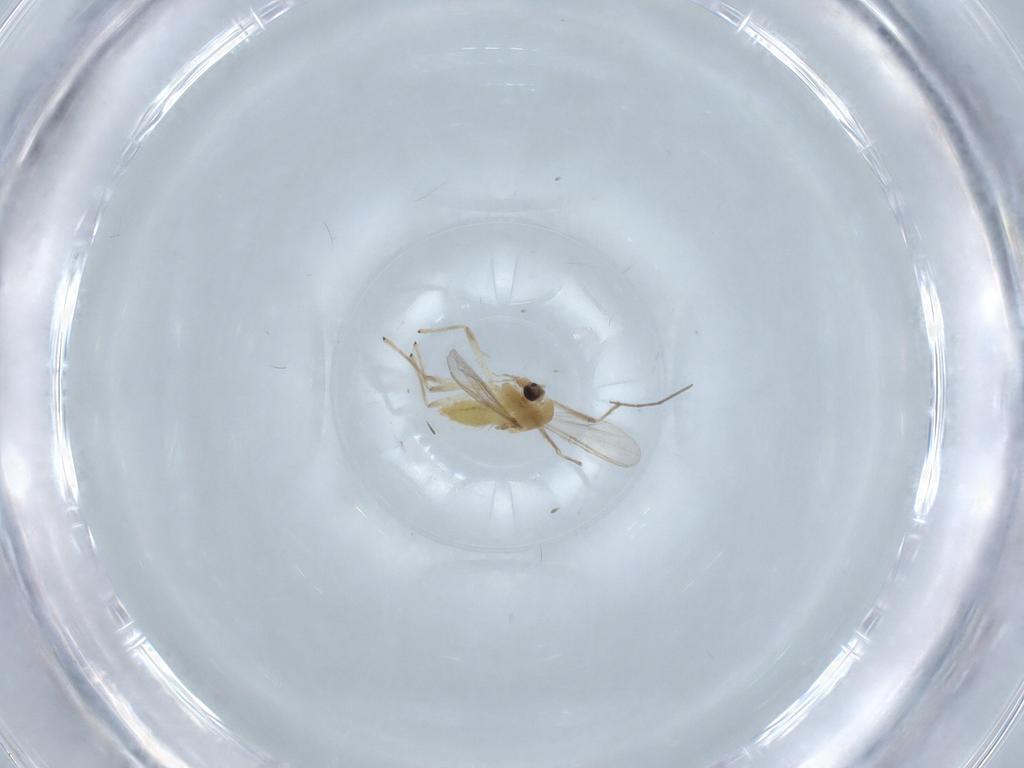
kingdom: Animalia
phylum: Arthropoda
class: Insecta
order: Diptera
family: Chironomidae
